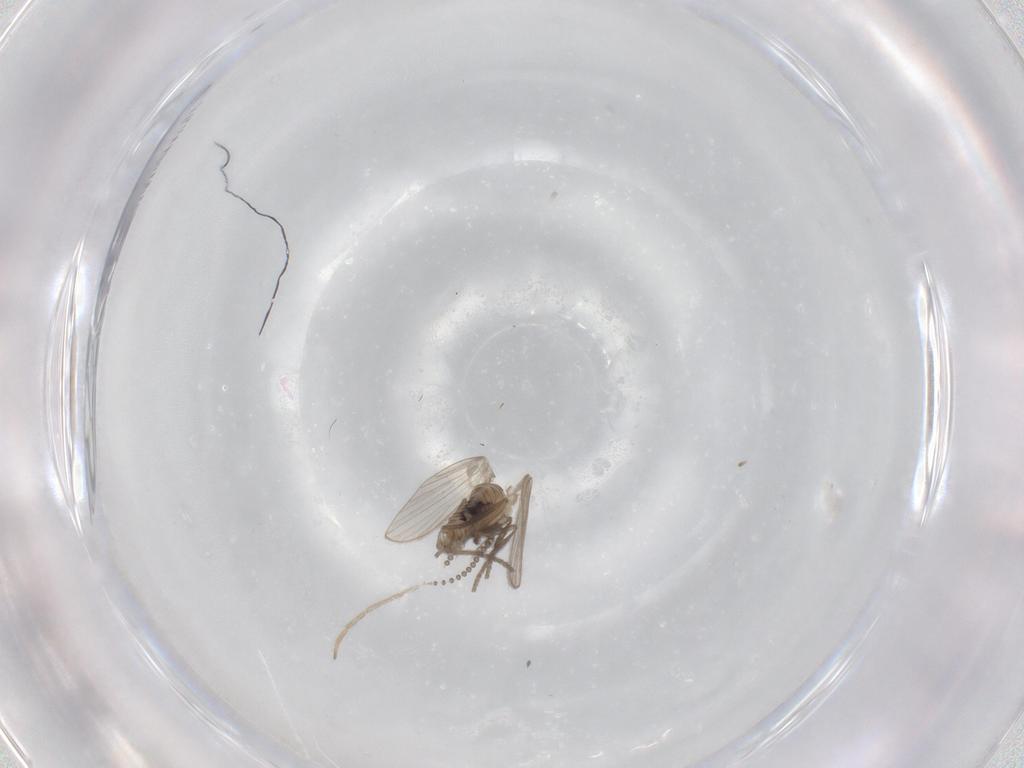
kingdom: Animalia
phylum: Arthropoda
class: Insecta
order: Diptera
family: Psychodidae
